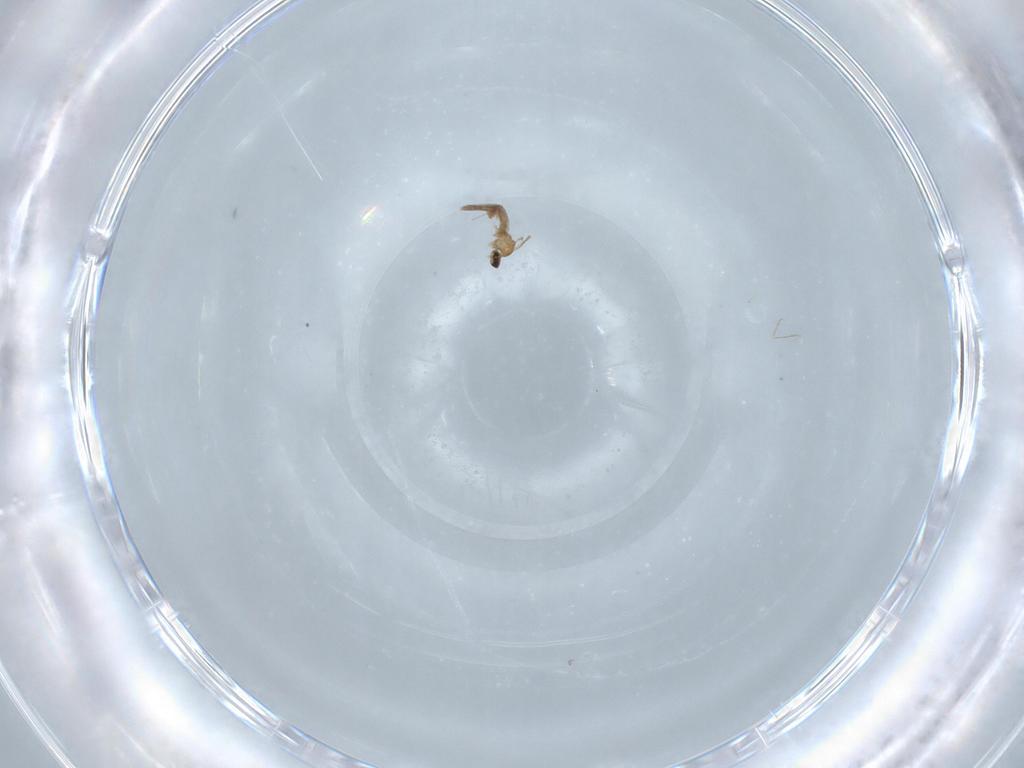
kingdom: Animalia
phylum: Arthropoda
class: Insecta
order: Diptera
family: Cecidomyiidae
